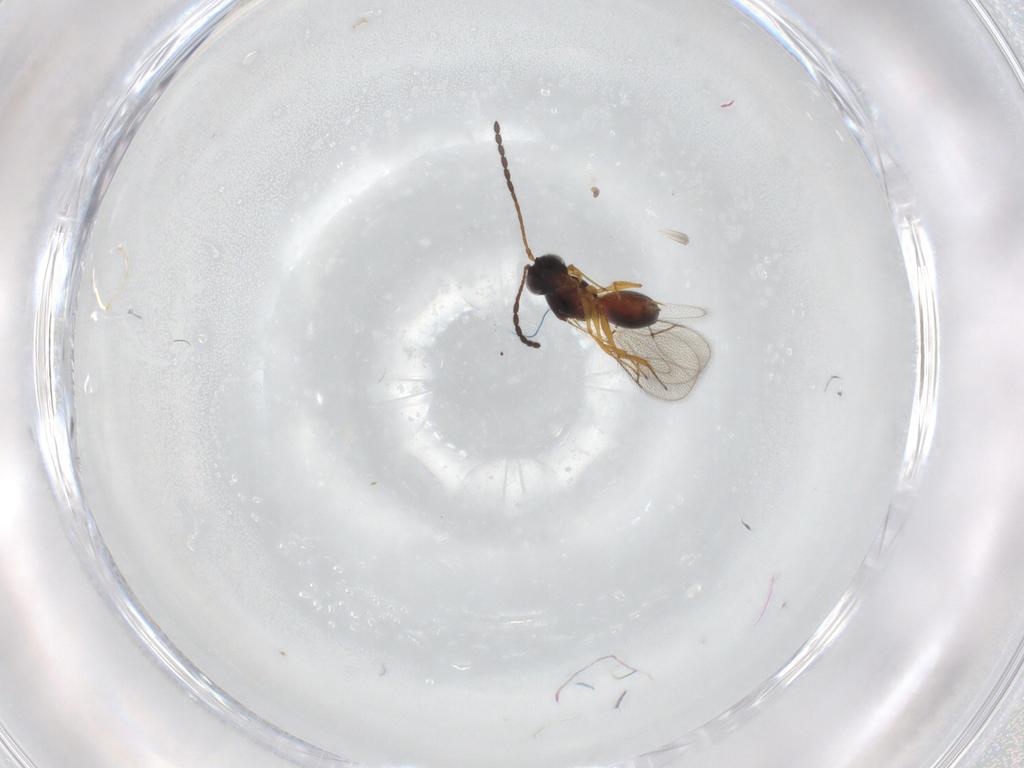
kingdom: Animalia
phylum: Arthropoda
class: Insecta
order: Hymenoptera
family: Figitidae
